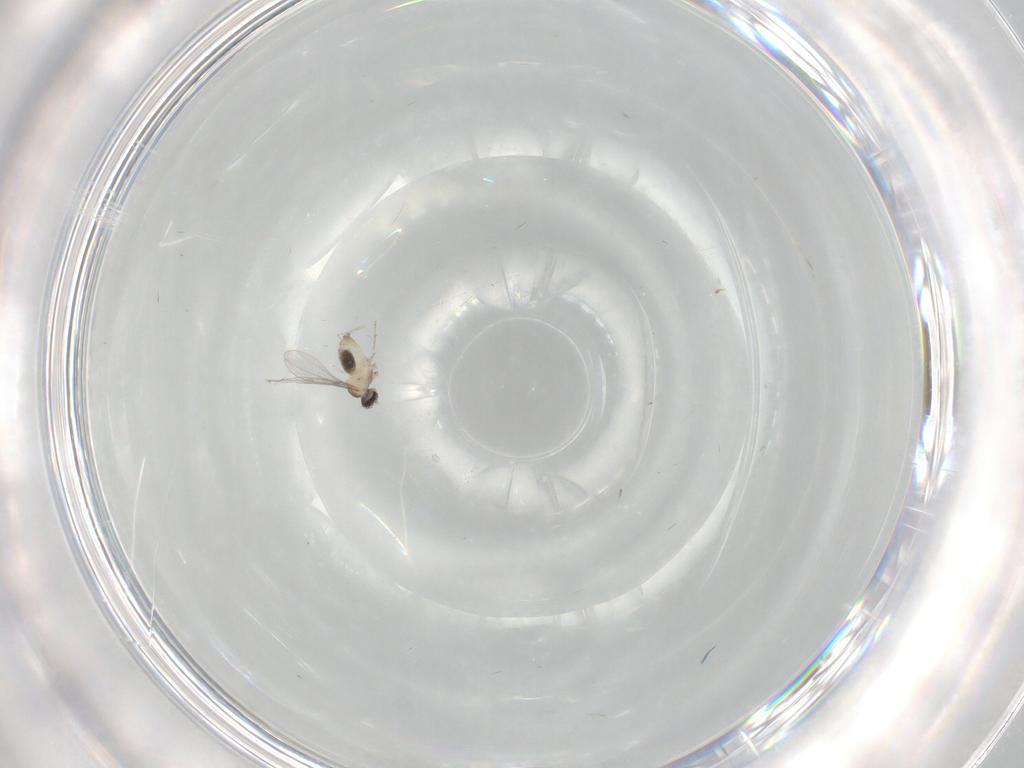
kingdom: Animalia
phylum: Arthropoda
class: Insecta
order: Diptera
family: Cecidomyiidae
